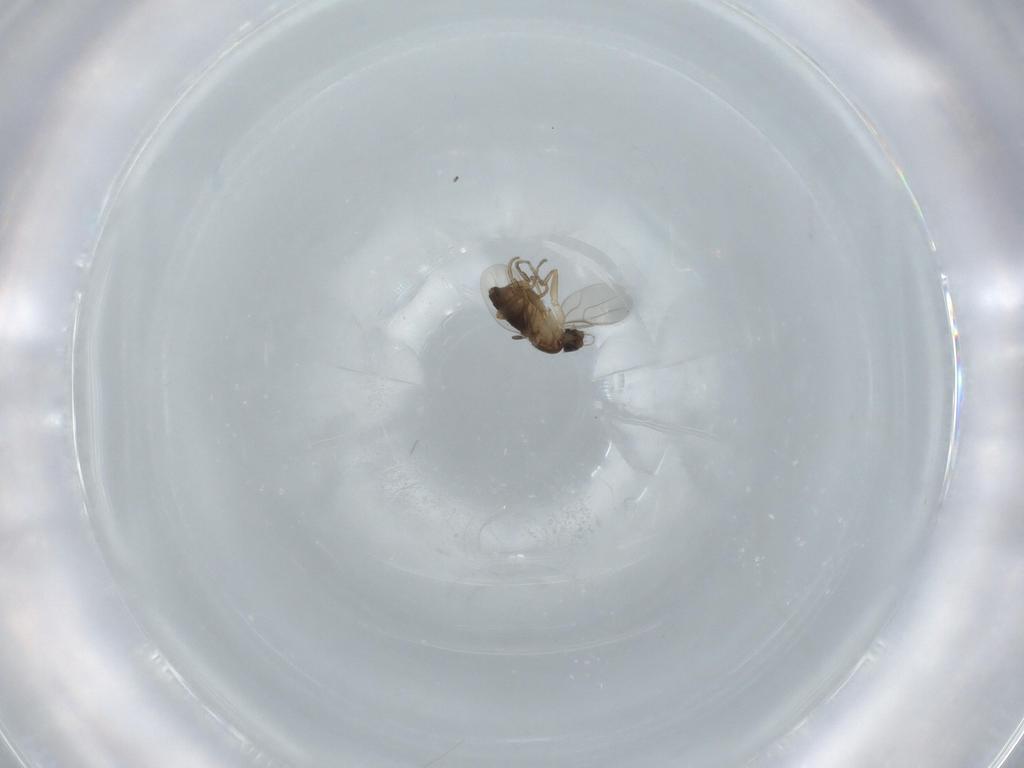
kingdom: Animalia
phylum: Arthropoda
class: Insecta
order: Diptera
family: Phoridae
